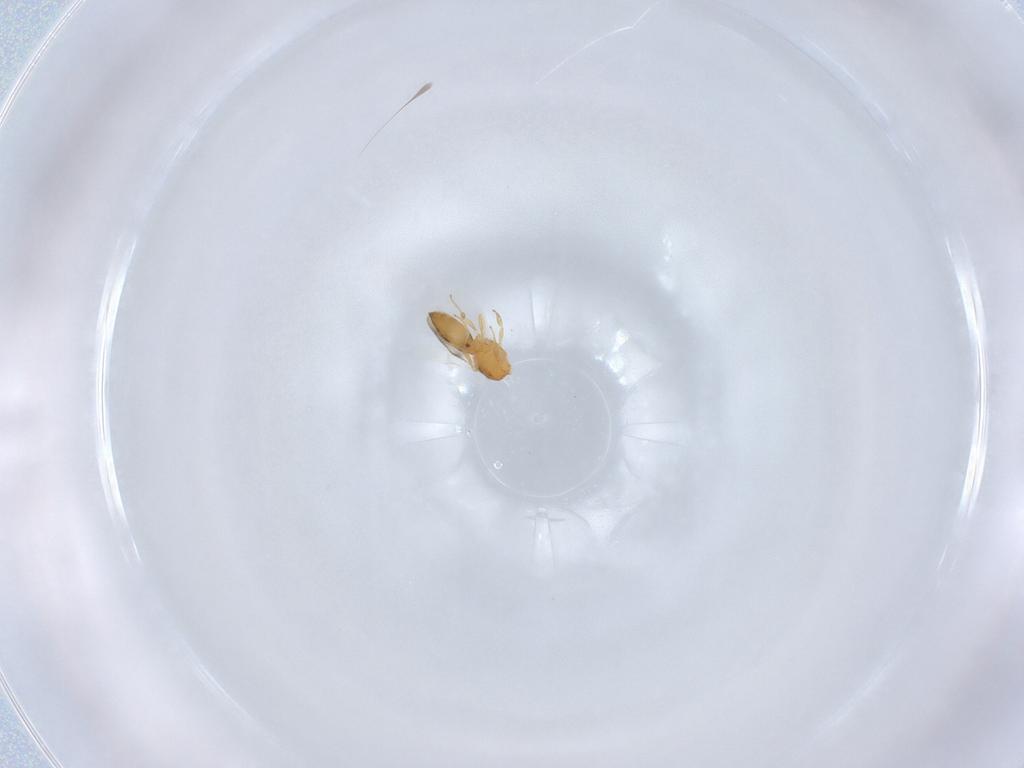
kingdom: Animalia
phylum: Arthropoda
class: Insecta
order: Hymenoptera
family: Scelionidae
